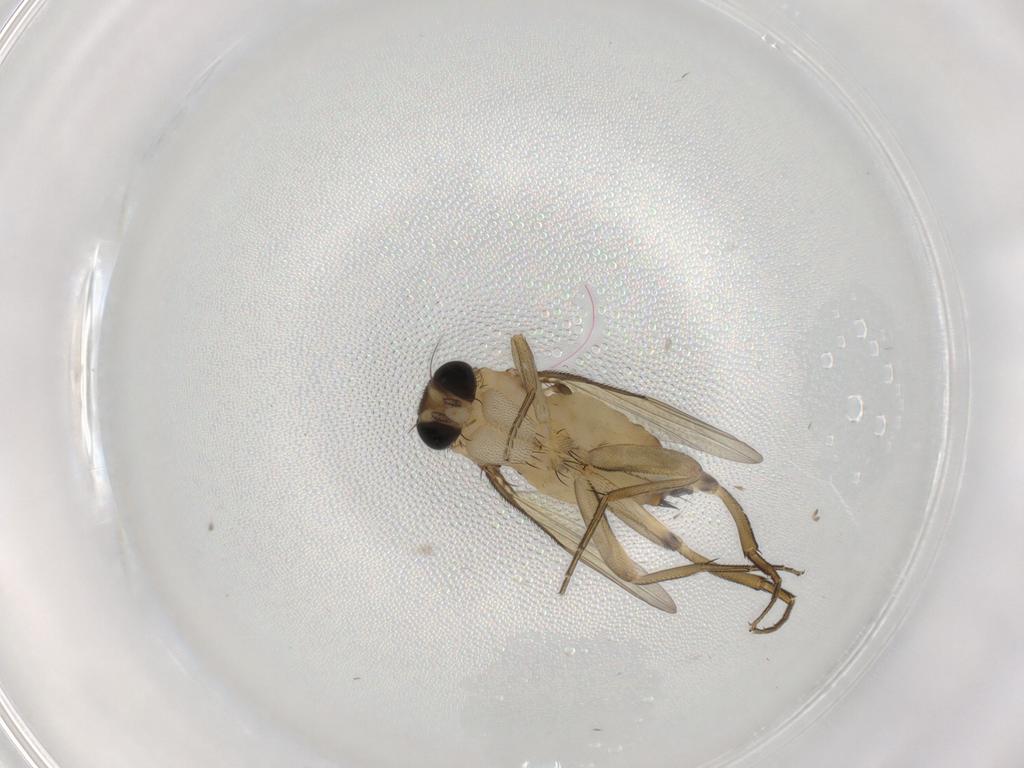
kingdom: Animalia
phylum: Arthropoda
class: Insecta
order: Diptera
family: Phoridae
